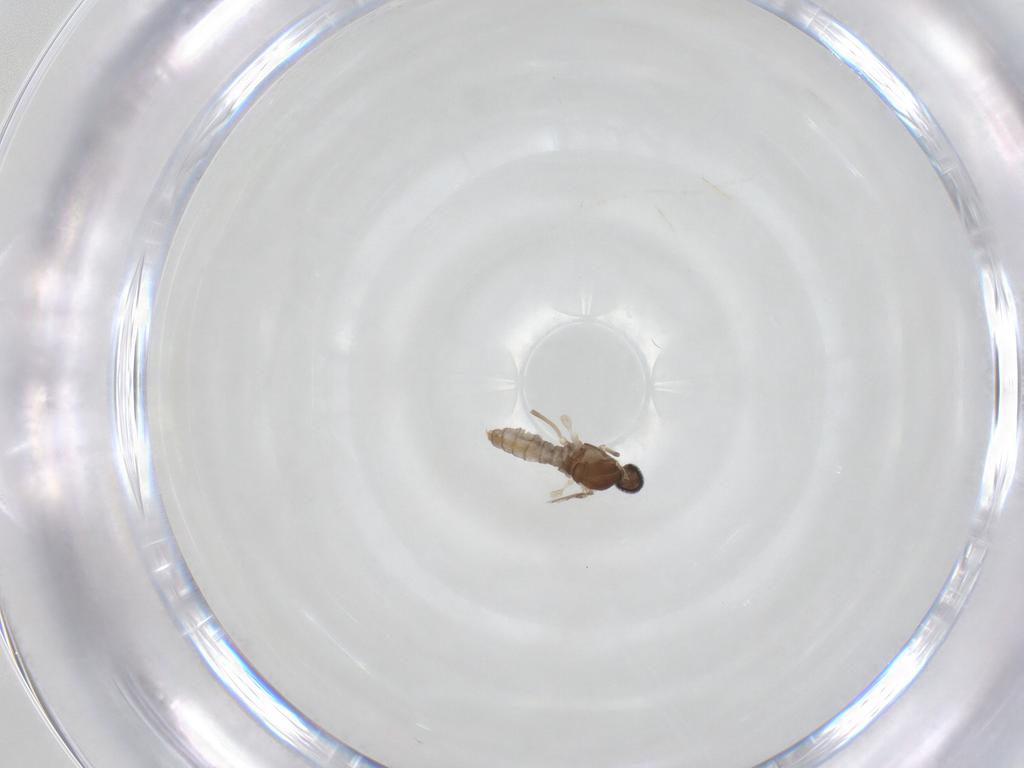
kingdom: Animalia
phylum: Arthropoda
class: Insecta
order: Diptera
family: Cecidomyiidae
